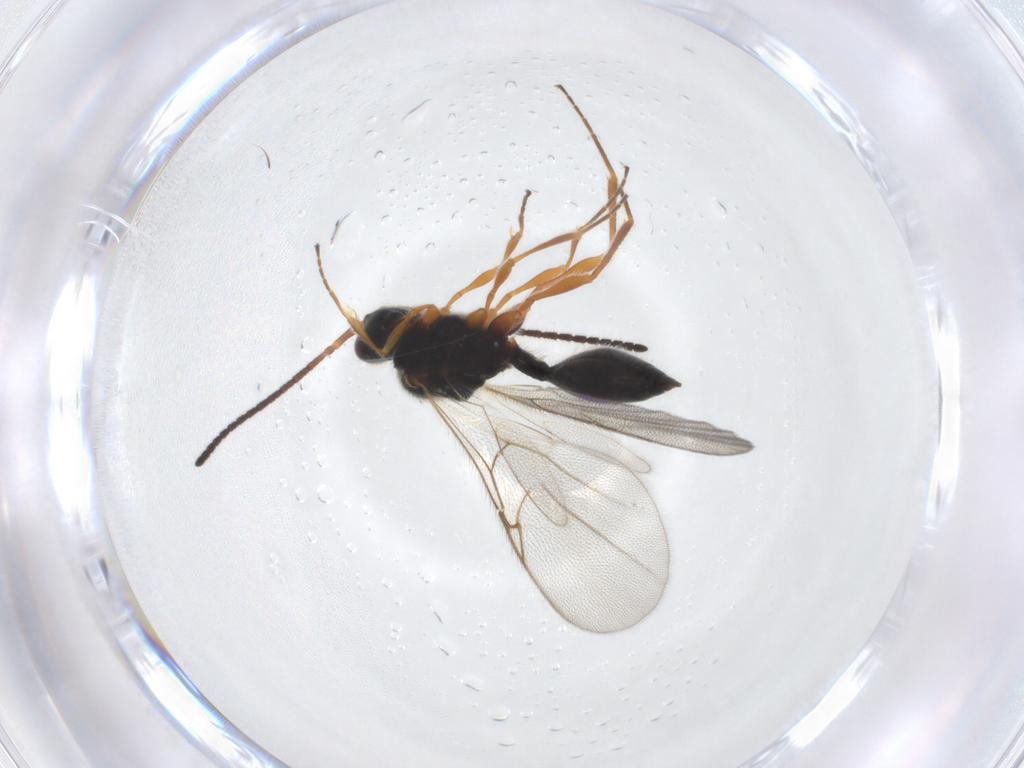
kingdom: Animalia
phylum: Arthropoda
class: Insecta
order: Hymenoptera
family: Diapriidae
